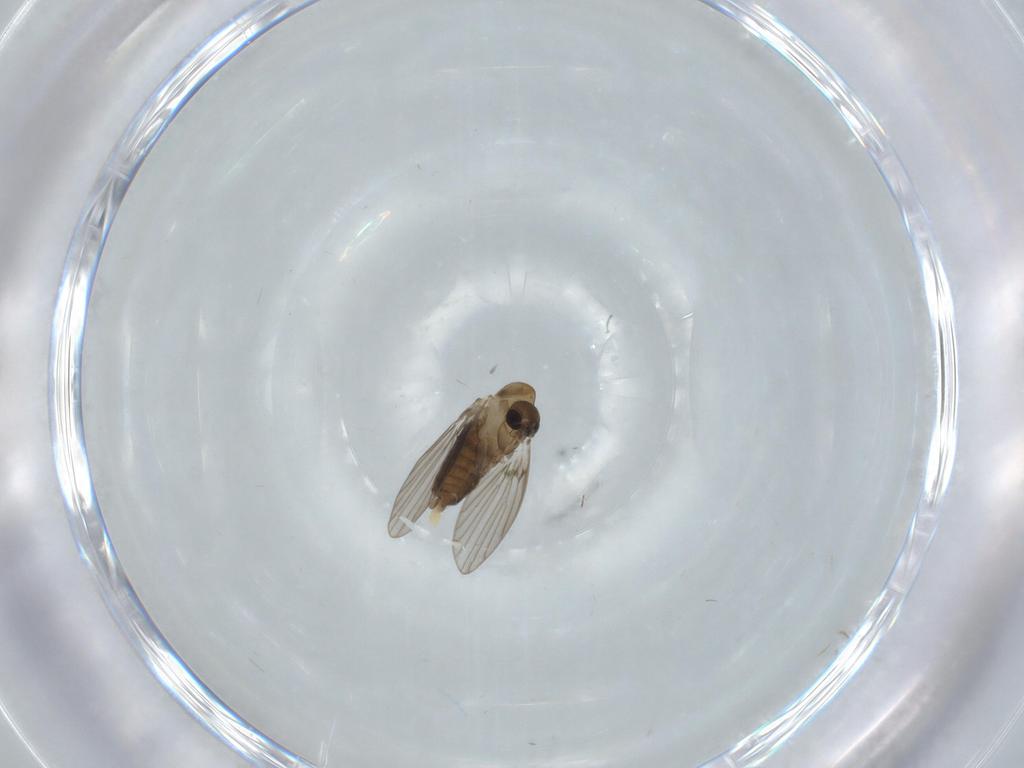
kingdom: Animalia
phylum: Arthropoda
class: Insecta
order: Diptera
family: Psychodidae
